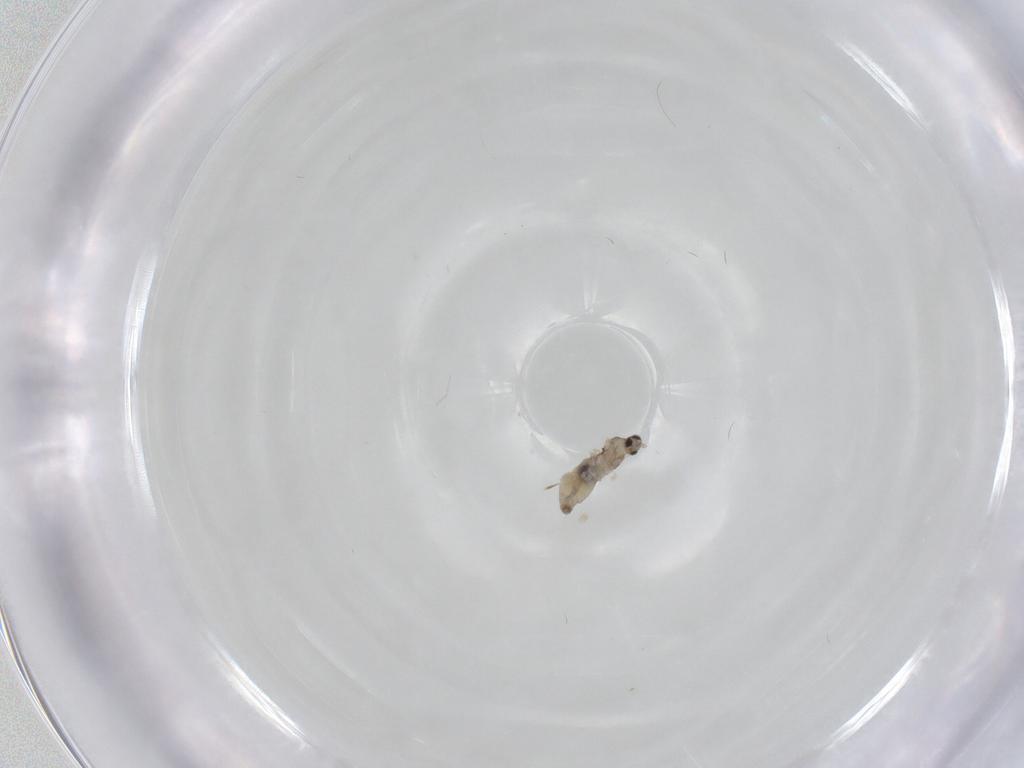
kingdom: Animalia
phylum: Arthropoda
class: Insecta
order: Diptera
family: Cecidomyiidae
